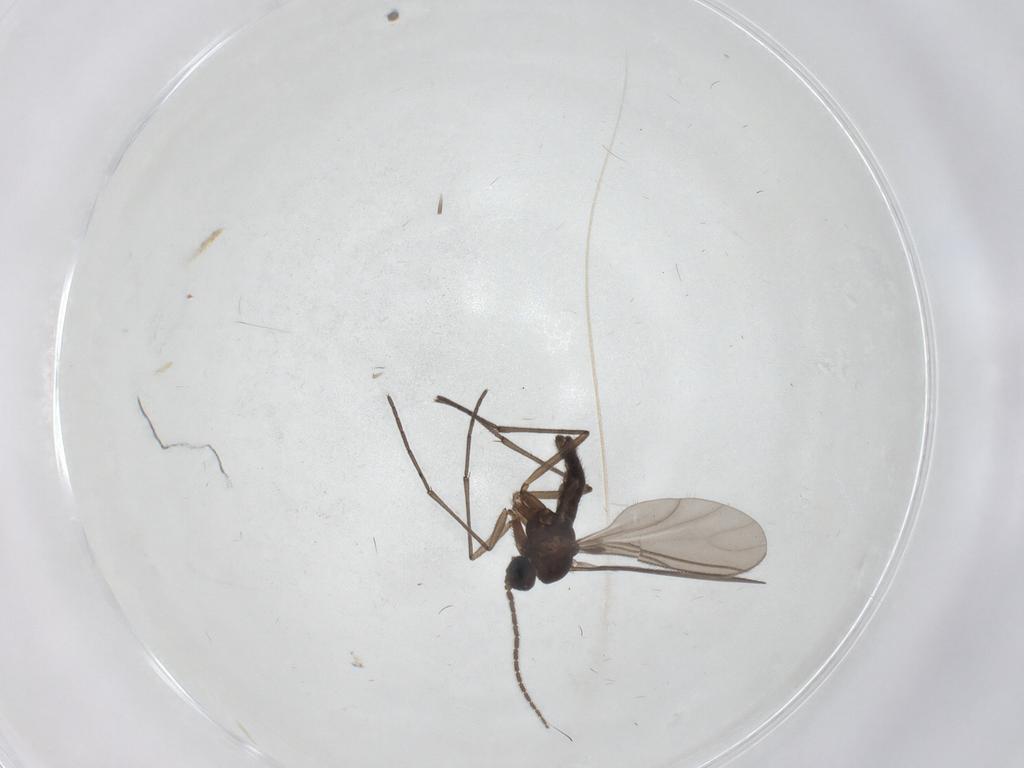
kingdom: Animalia
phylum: Arthropoda
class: Insecta
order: Diptera
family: Sciaridae
